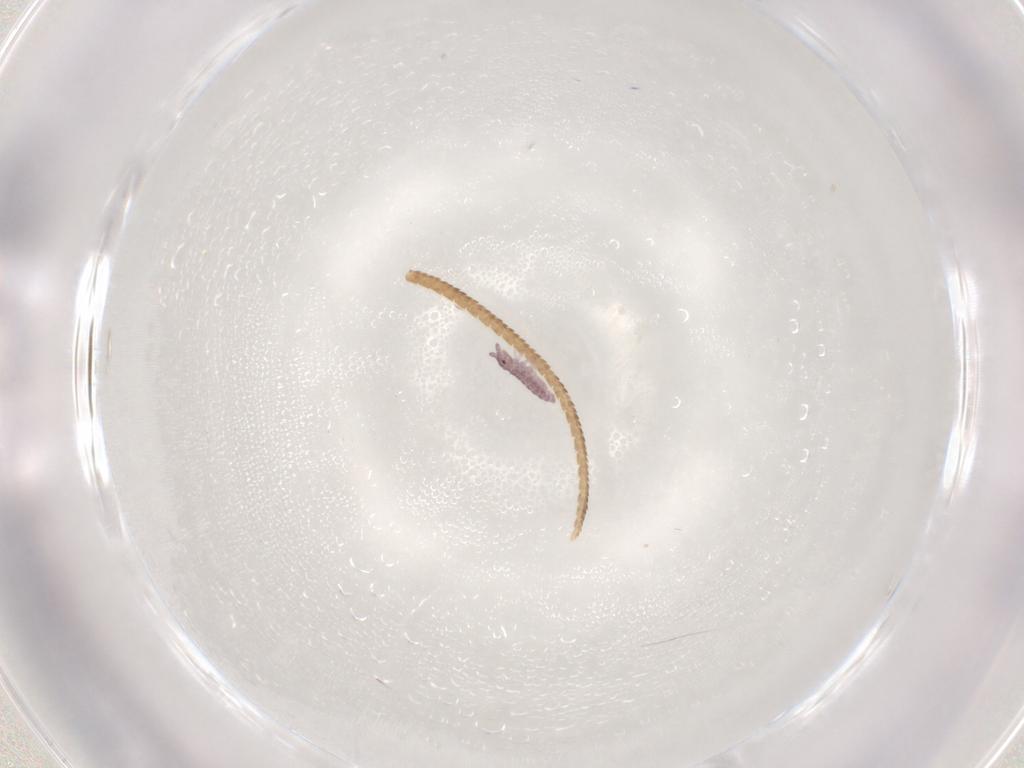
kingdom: Animalia
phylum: Arthropoda
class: Collembola
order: Poduromorpha
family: Hypogastruridae
